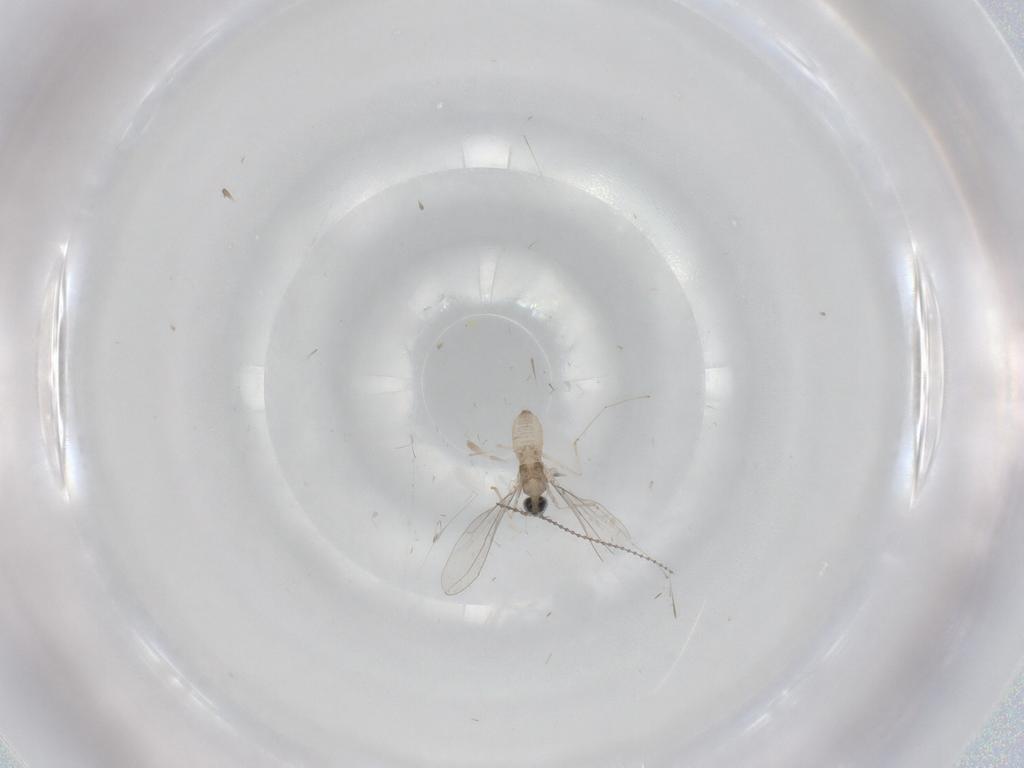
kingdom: Animalia
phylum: Arthropoda
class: Insecta
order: Diptera
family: Cecidomyiidae
